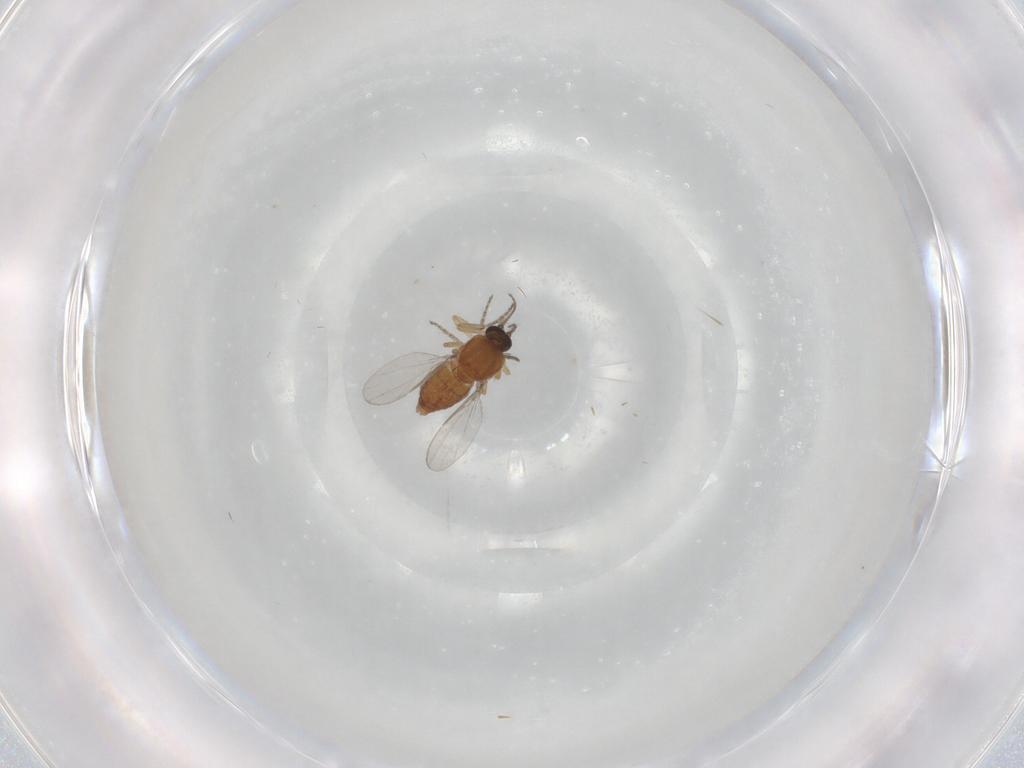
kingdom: Animalia
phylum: Arthropoda
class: Insecta
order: Diptera
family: Ceratopogonidae
